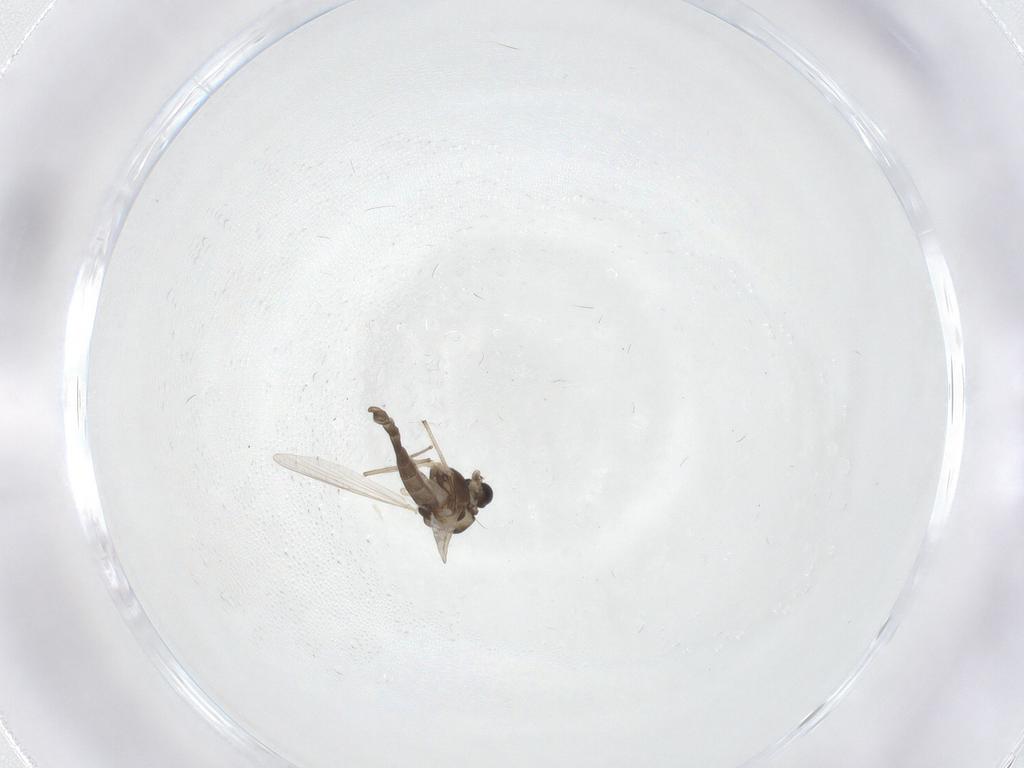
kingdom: Animalia
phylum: Arthropoda
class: Insecta
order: Diptera
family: Chironomidae
